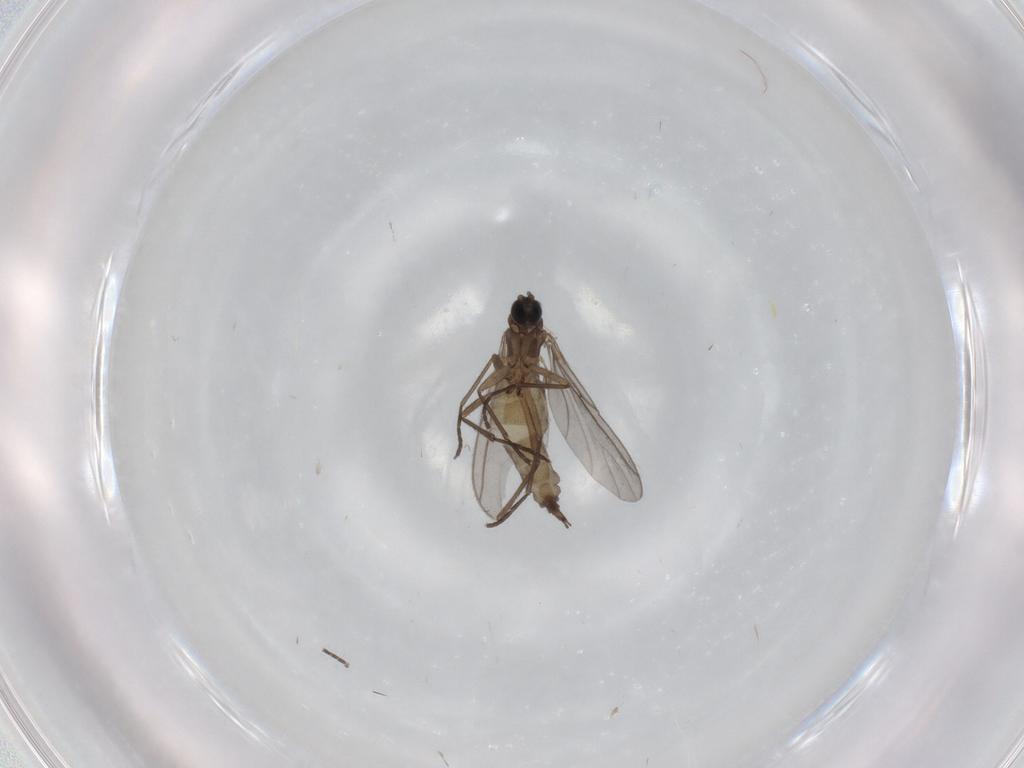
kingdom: Animalia
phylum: Arthropoda
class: Insecta
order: Diptera
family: Sciaridae
